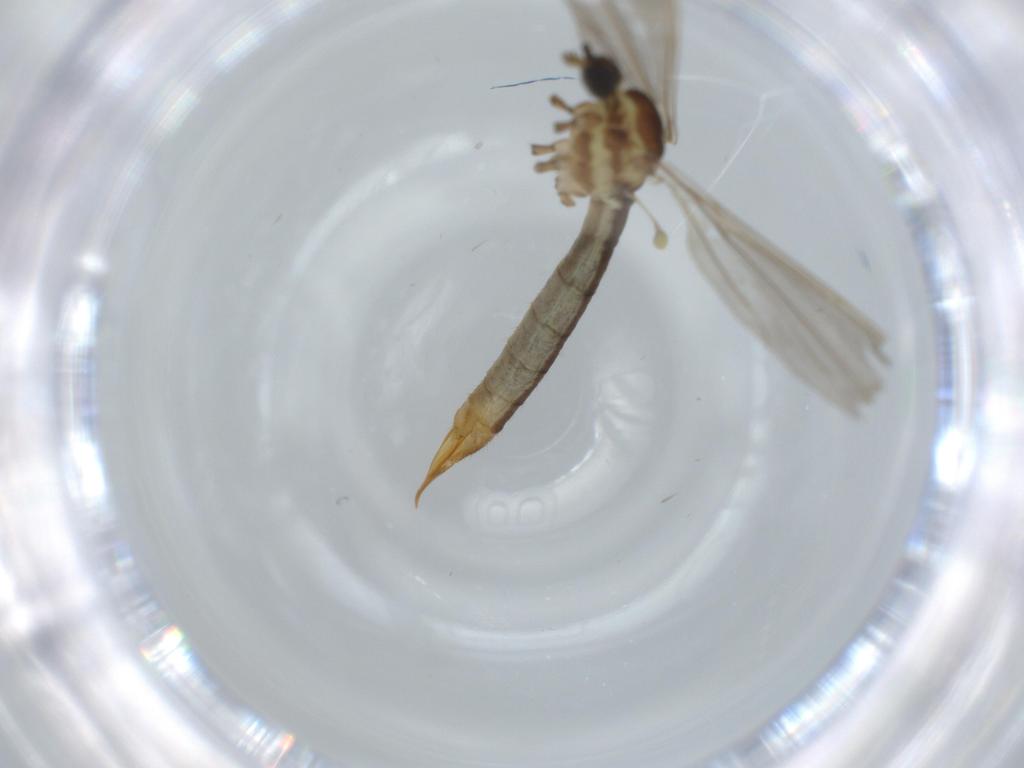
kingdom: Animalia
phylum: Arthropoda
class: Insecta
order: Diptera
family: Limoniidae
